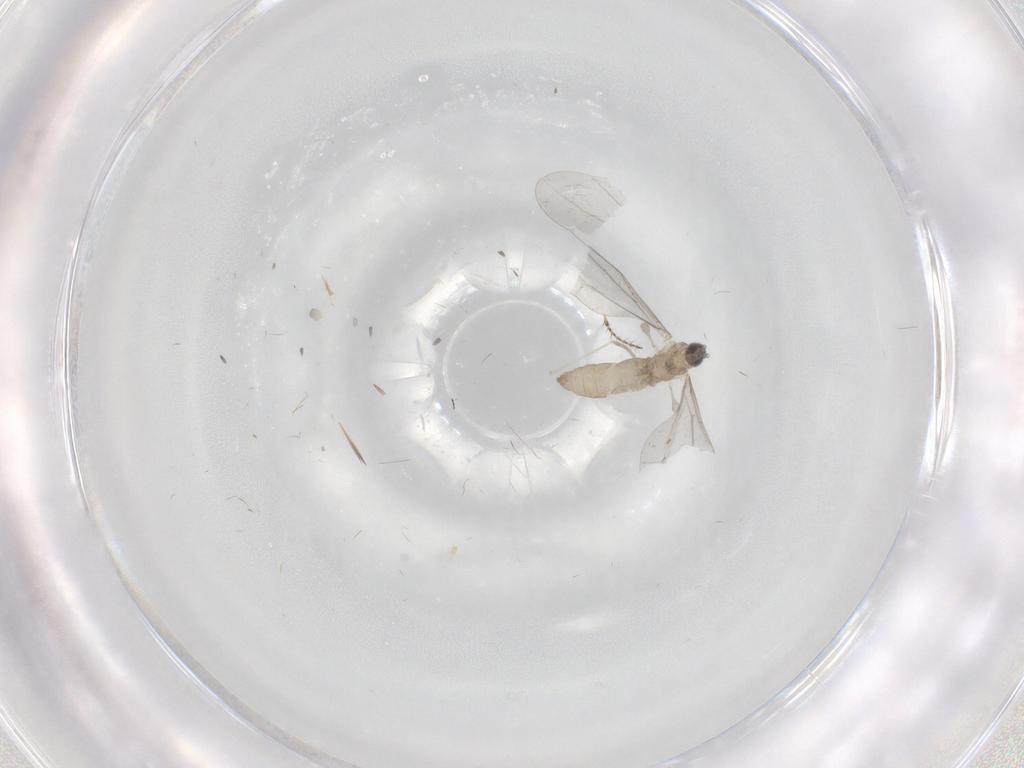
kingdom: Animalia
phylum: Arthropoda
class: Insecta
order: Diptera
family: Cecidomyiidae
